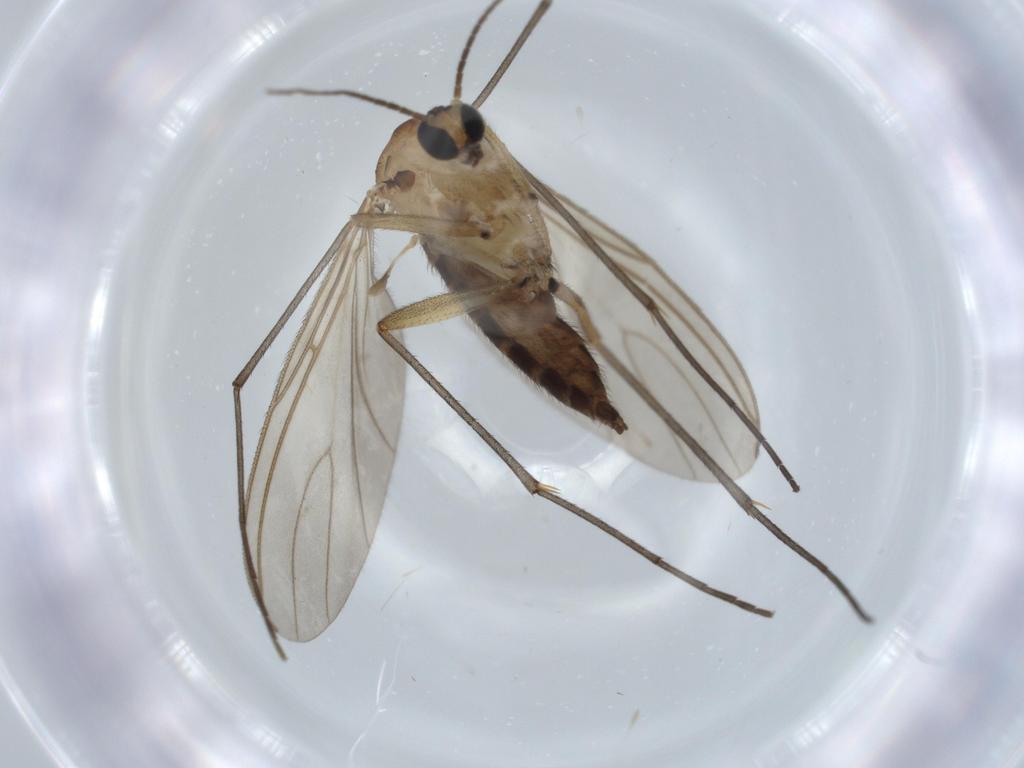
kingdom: Animalia
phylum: Arthropoda
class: Insecta
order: Diptera
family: Sciaridae
